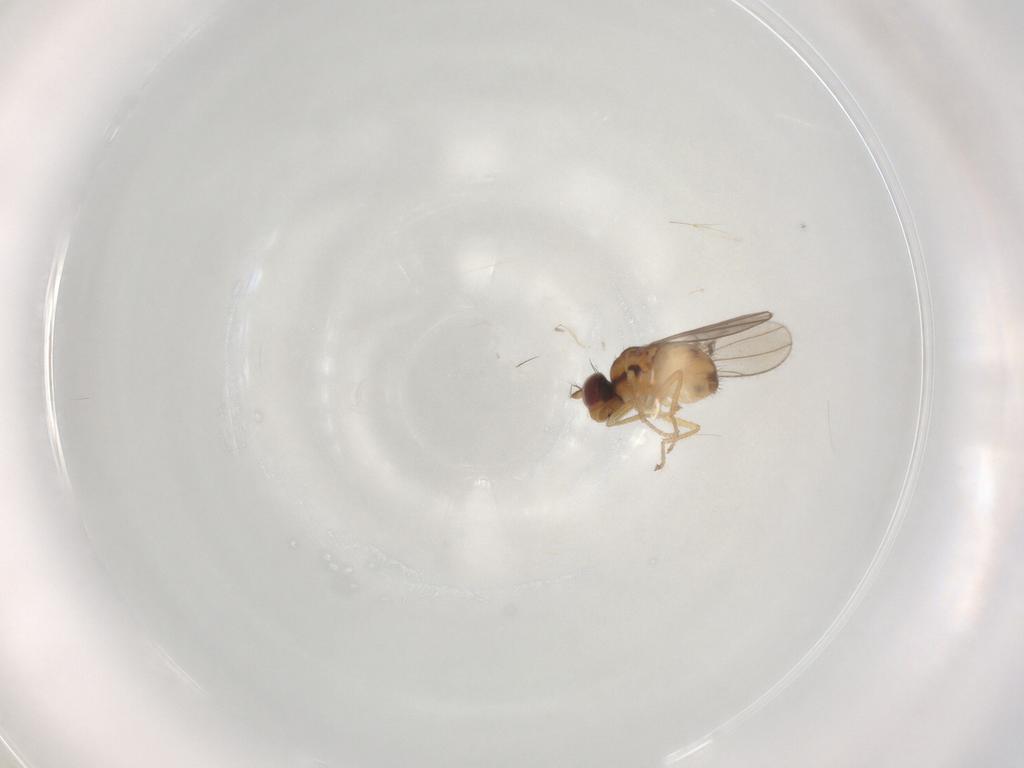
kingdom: Animalia
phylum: Arthropoda
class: Insecta
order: Diptera
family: Ephydridae
